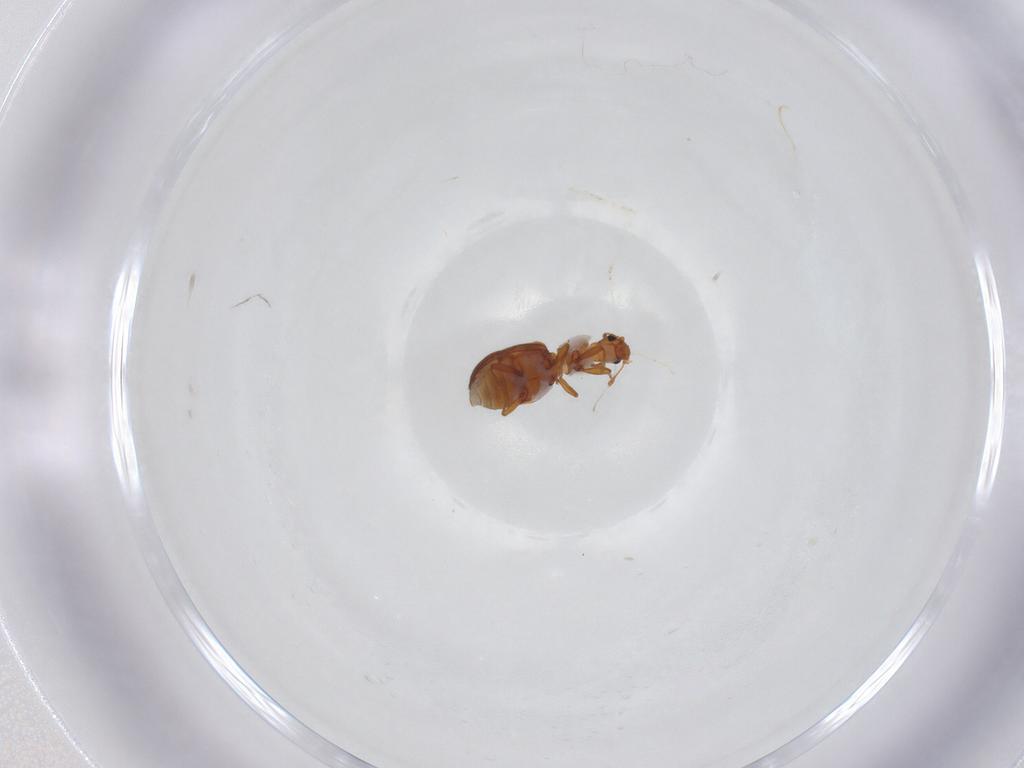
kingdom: Animalia
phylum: Arthropoda
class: Insecta
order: Coleoptera
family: Latridiidae
